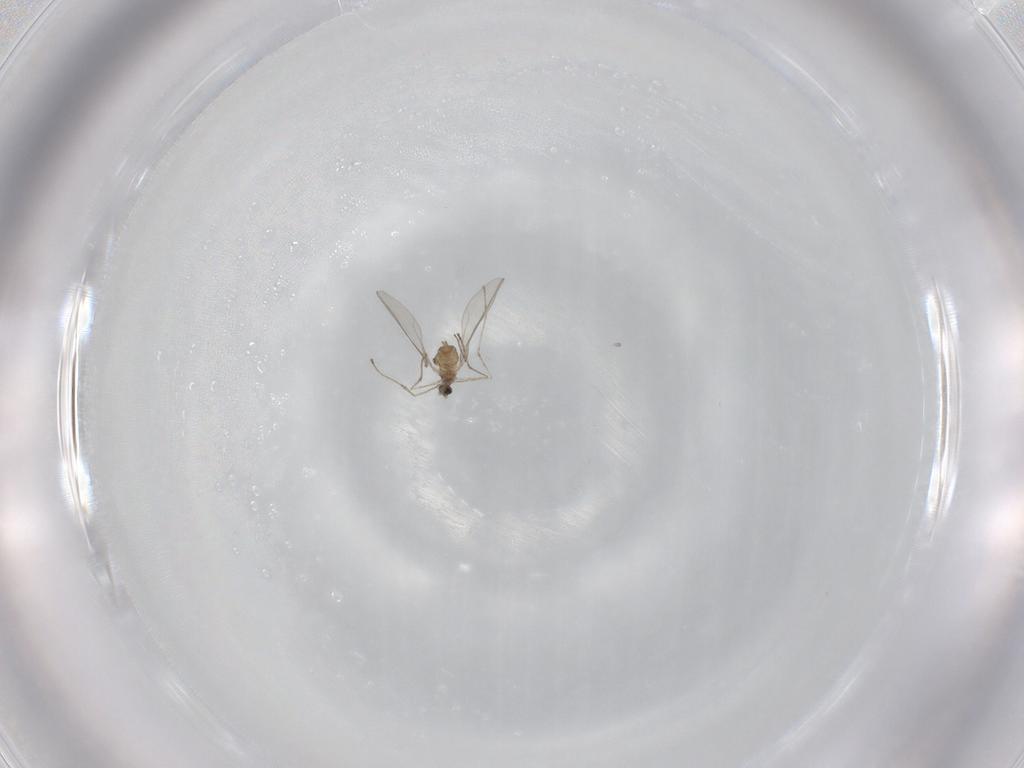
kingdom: Animalia
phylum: Arthropoda
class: Insecta
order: Diptera
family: Cecidomyiidae
